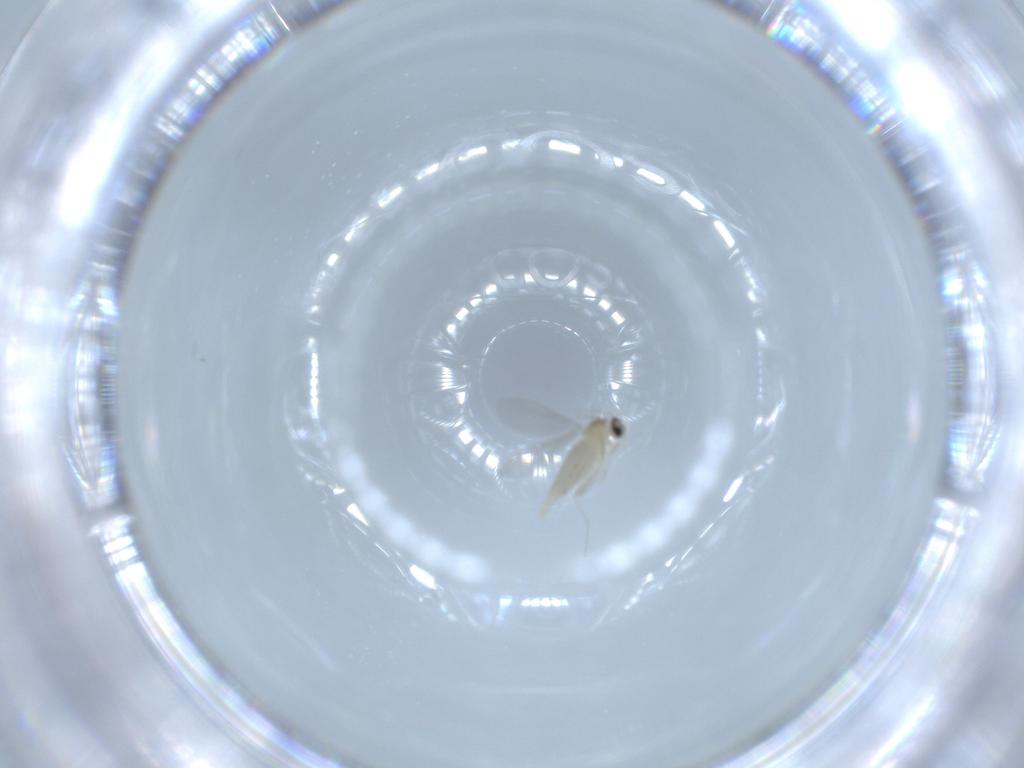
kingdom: Animalia
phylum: Arthropoda
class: Insecta
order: Diptera
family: Cecidomyiidae
